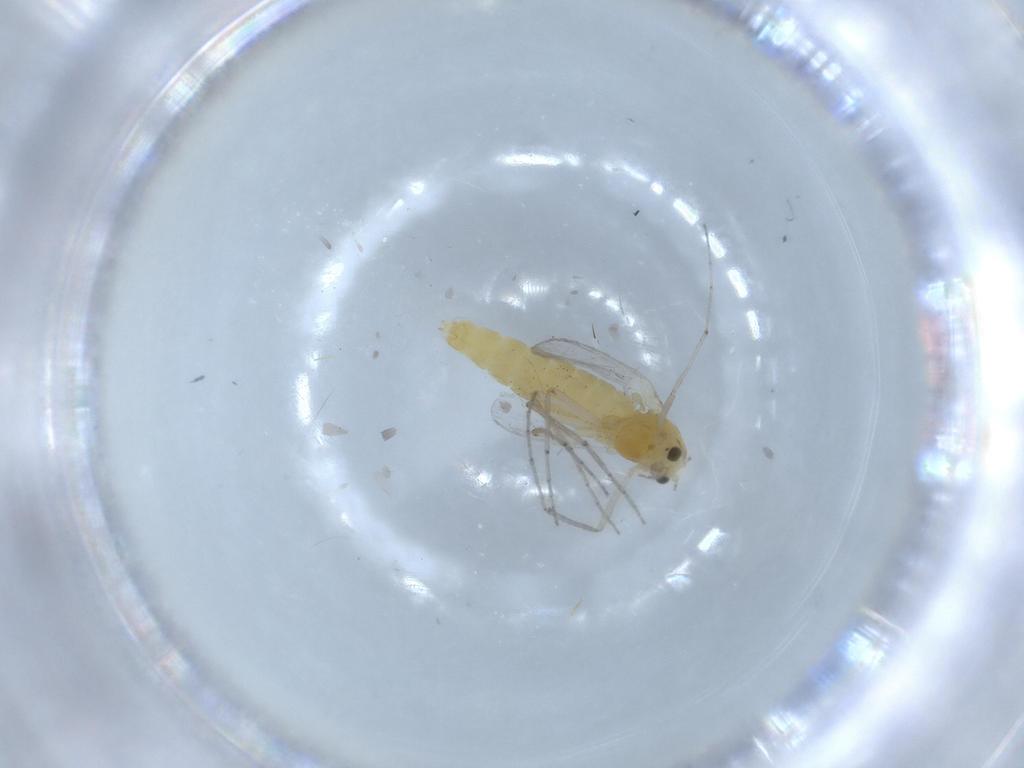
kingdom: Animalia
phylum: Arthropoda
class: Insecta
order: Diptera
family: Chironomidae
